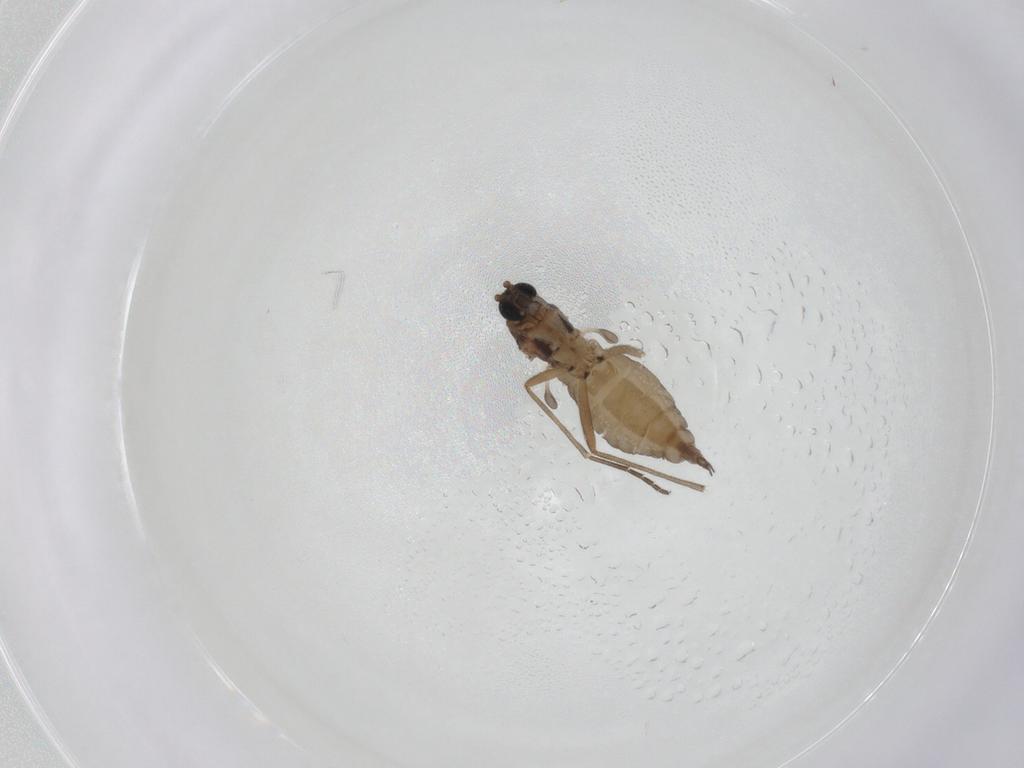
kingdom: Animalia
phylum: Arthropoda
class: Insecta
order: Diptera
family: Sciaridae
